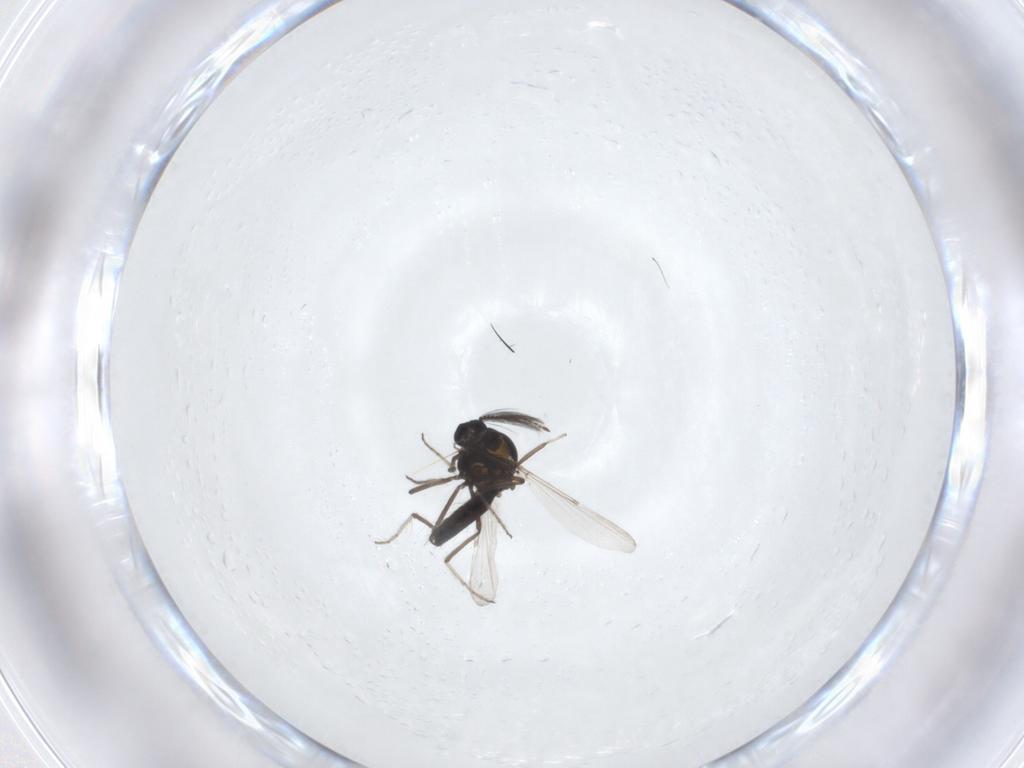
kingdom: Animalia
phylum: Arthropoda
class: Insecta
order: Diptera
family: Ceratopogonidae
